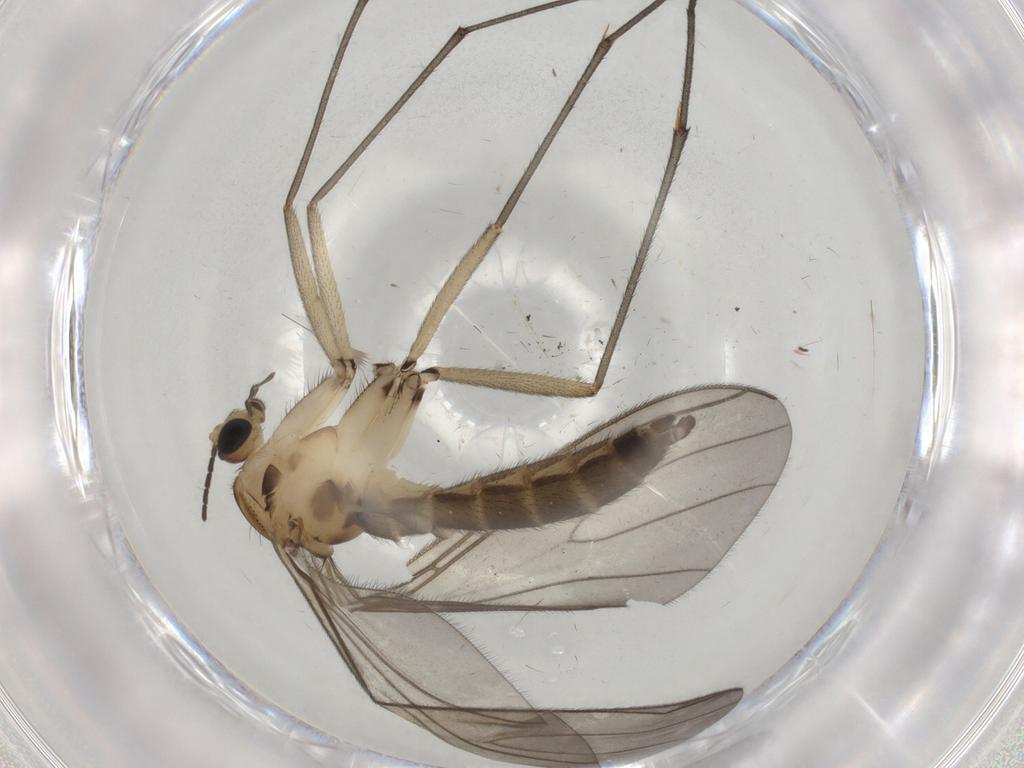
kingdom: Animalia
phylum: Arthropoda
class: Insecta
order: Diptera
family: Sciaridae
